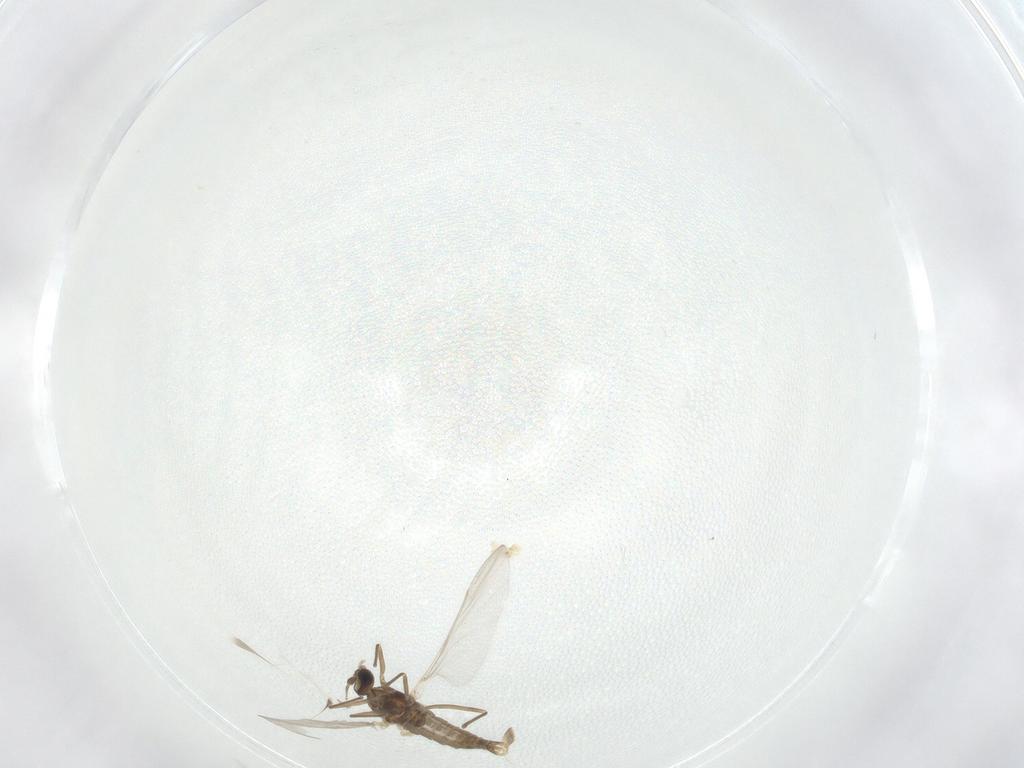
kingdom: Animalia
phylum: Arthropoda
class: Insecta
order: Diptera
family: Cecidomyiidae
